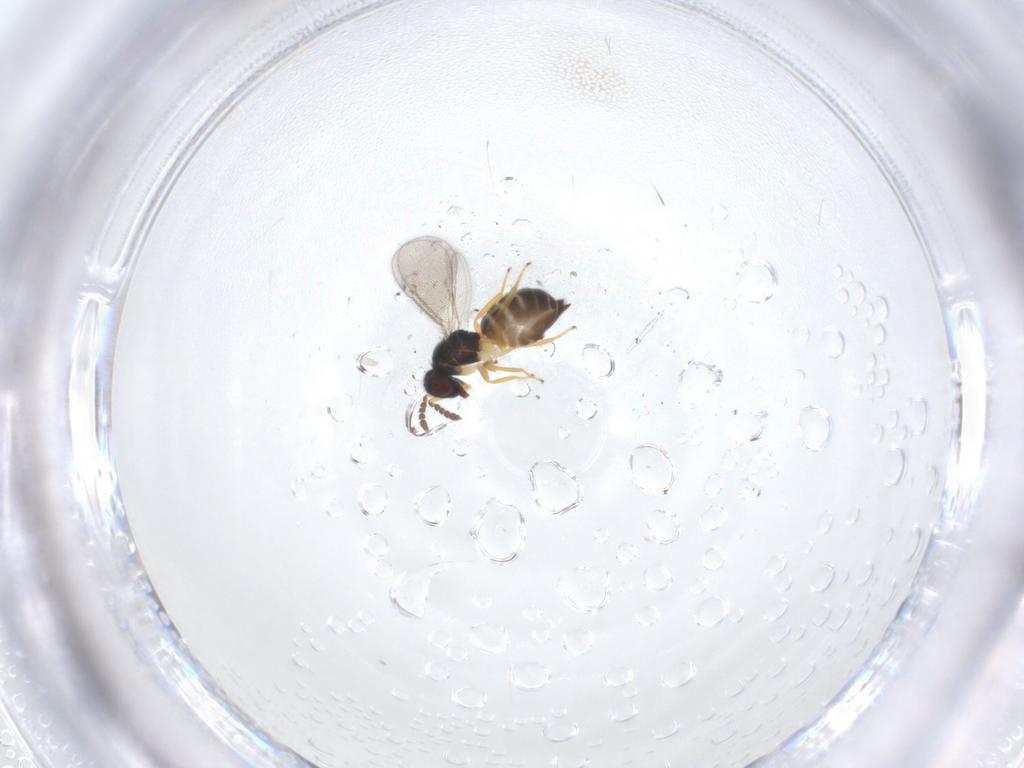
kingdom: Animalia
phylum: Arthropoda
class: Insecta
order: Hymenoptera
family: Eulophidae
